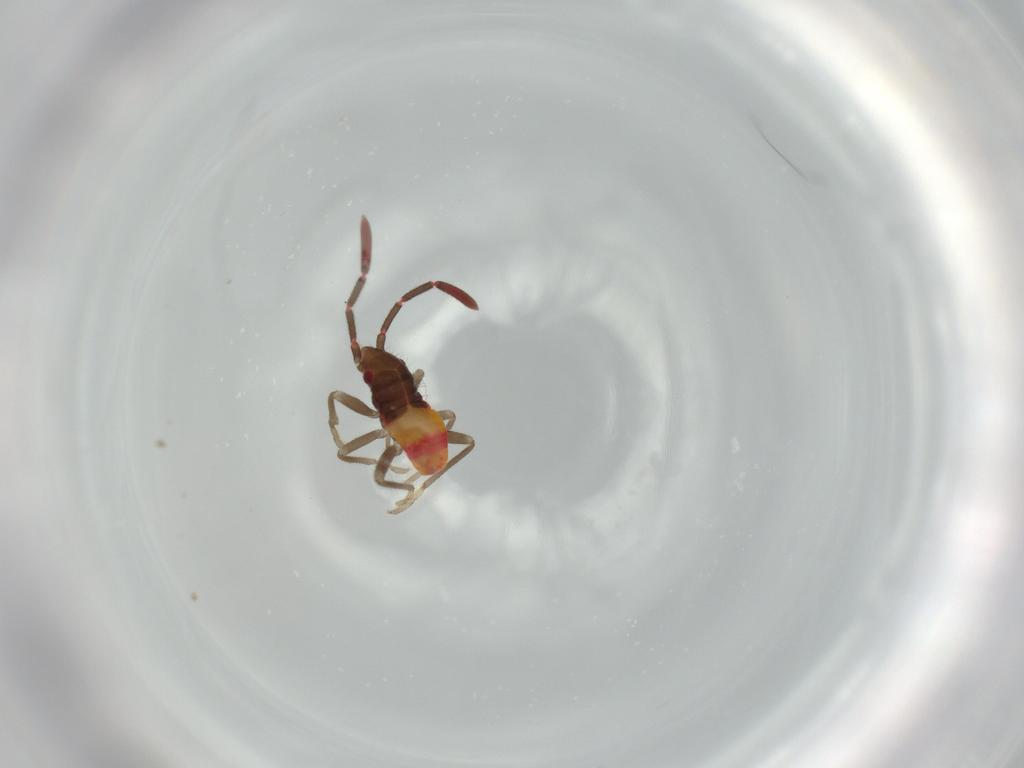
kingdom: Animalia
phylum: Arthropoda
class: Insecta
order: Hemiptera
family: Rhyparochromidae
